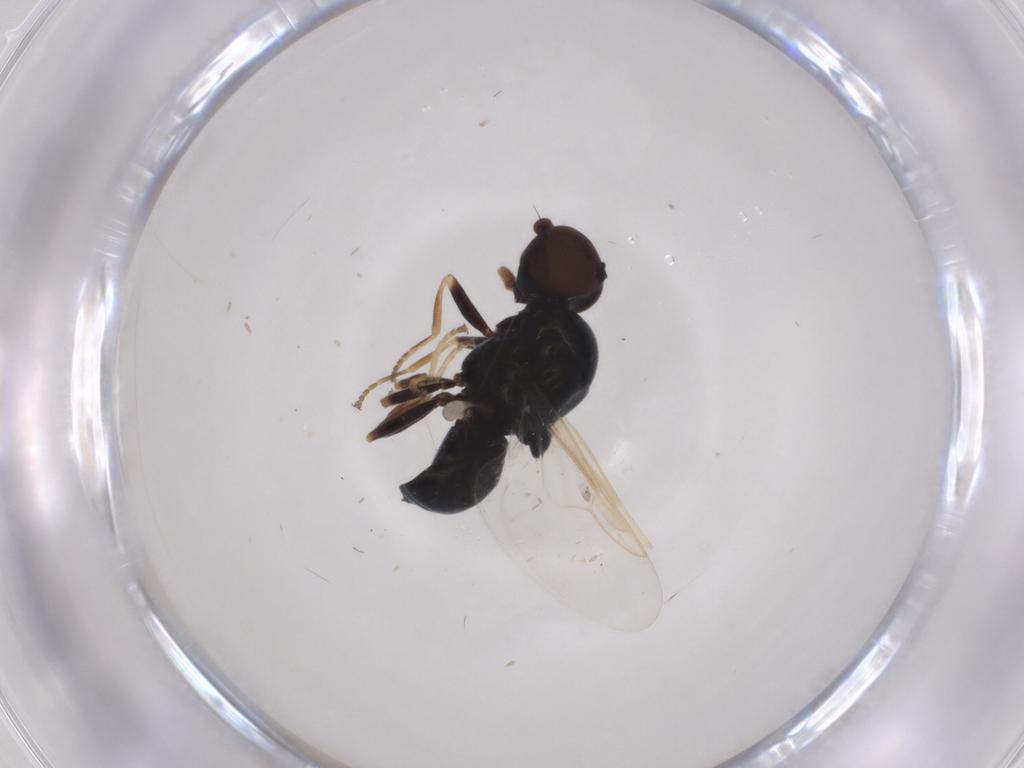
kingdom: Animalia
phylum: Arthropoda
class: Insecta
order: Diptera
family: Stratiomyidae
